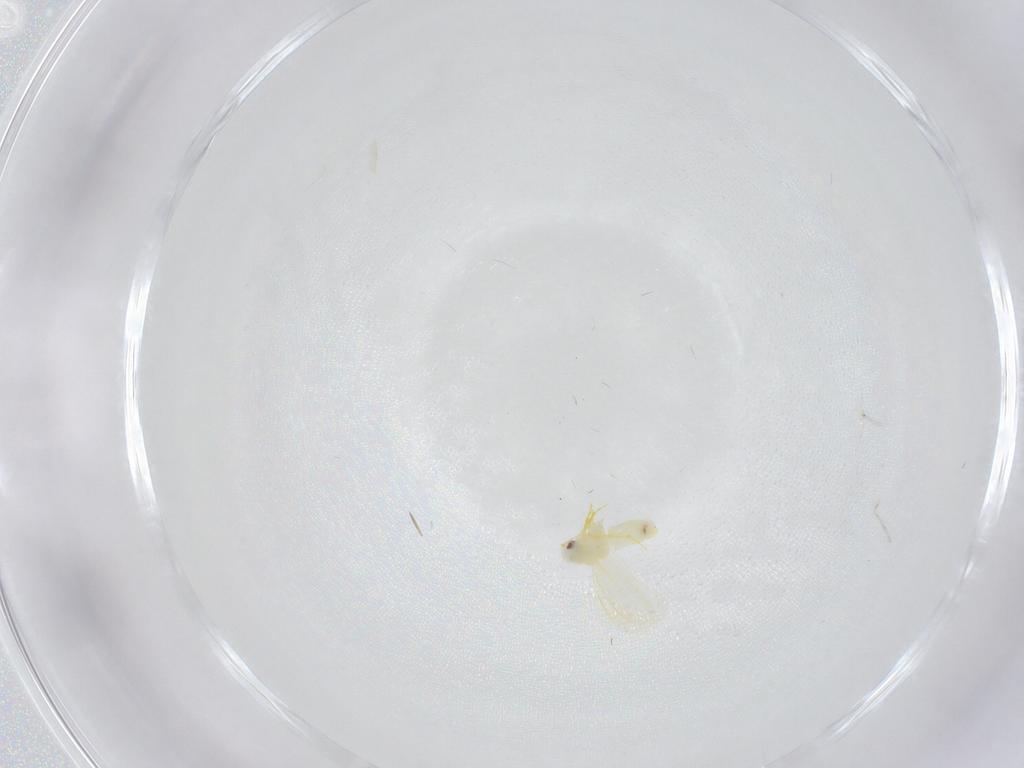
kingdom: Animalia
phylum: Arthropoda
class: Insecta
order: Hemiptera
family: Aleyrodidae
